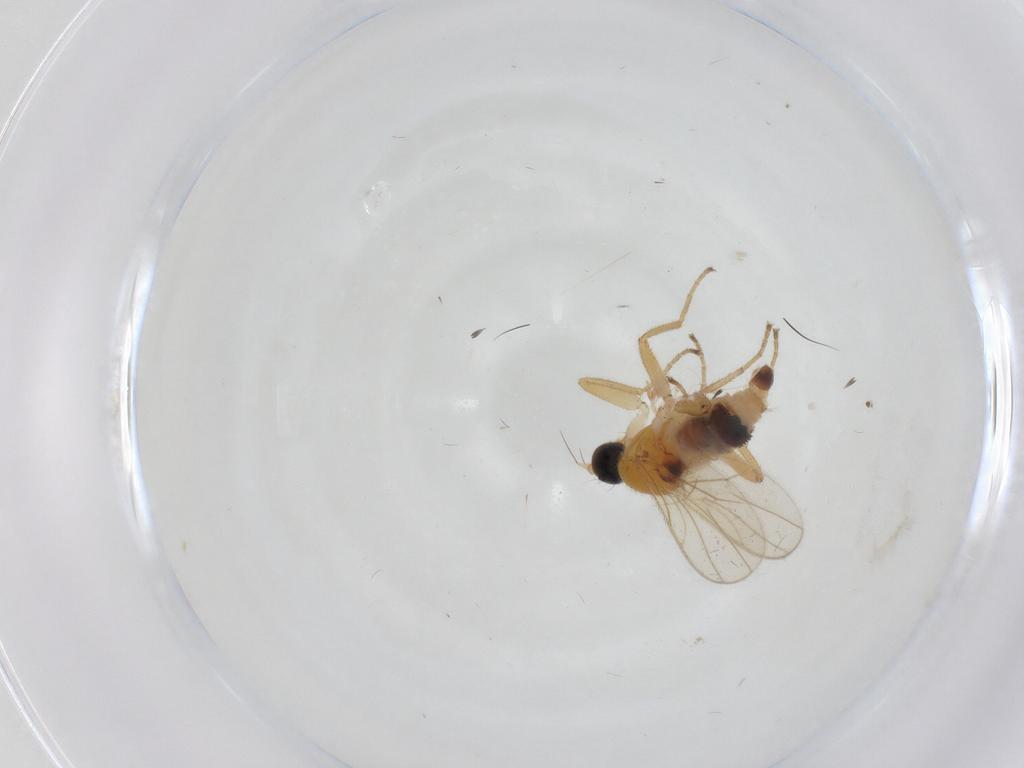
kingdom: Animalia
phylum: Arthropoda
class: Insecta
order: Diptera
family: Hybotidae
